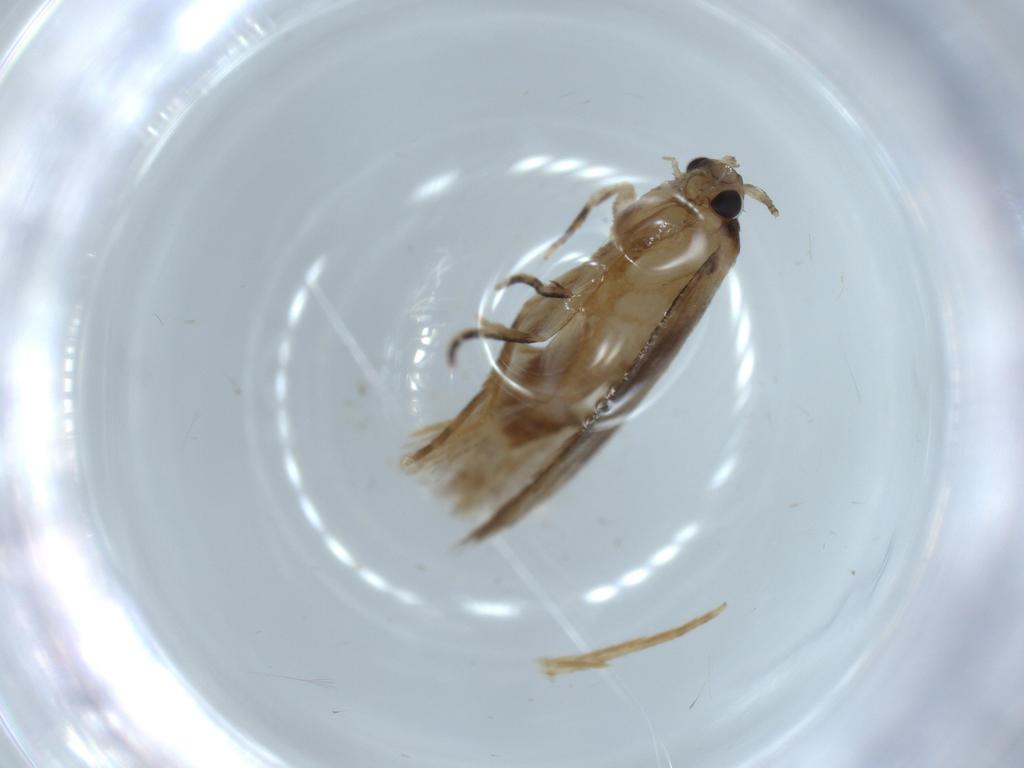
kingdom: Animalia
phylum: Arthropoda
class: Insecta
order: Lepidoptera
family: Tineidae
